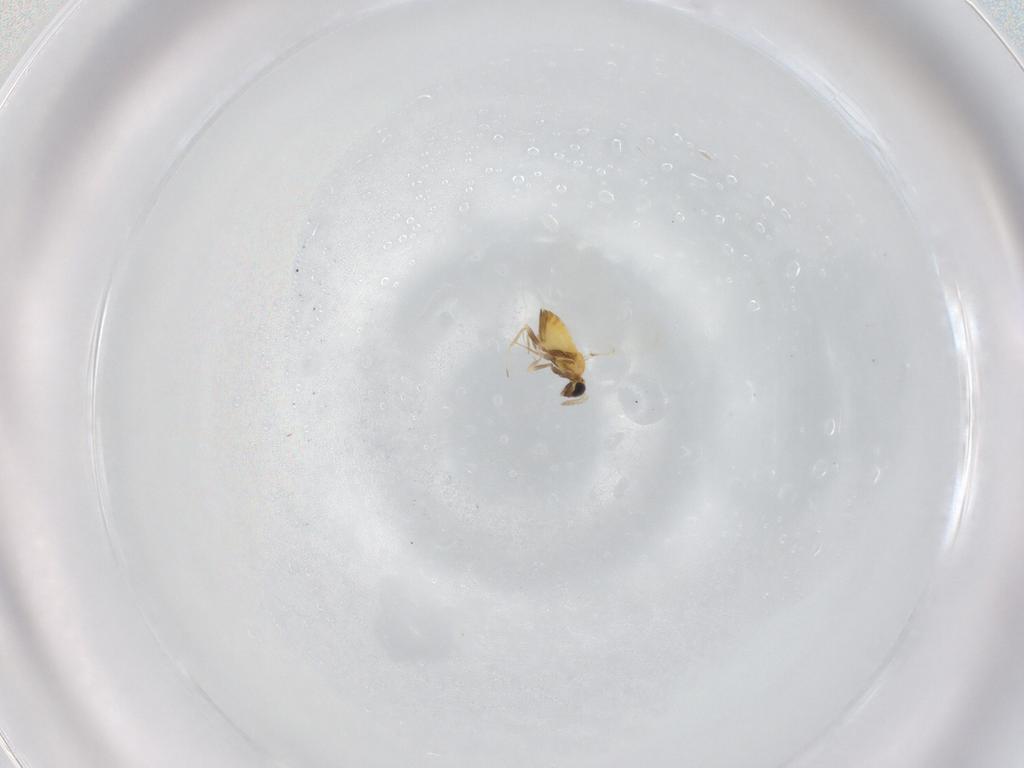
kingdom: Animalia
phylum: Arthropoda
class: Insecta
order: Hymenoptera
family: Trichogrammatidae
